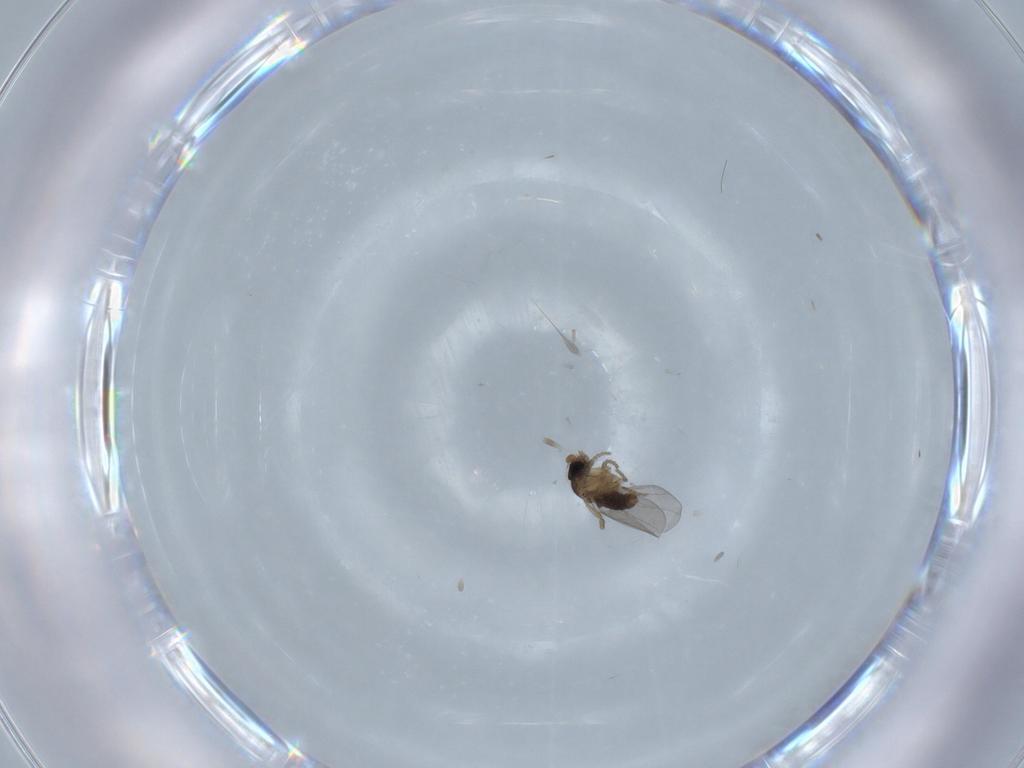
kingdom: Animalia
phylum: Arthropoda
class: Insecta
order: Diptera
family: Phoridae
